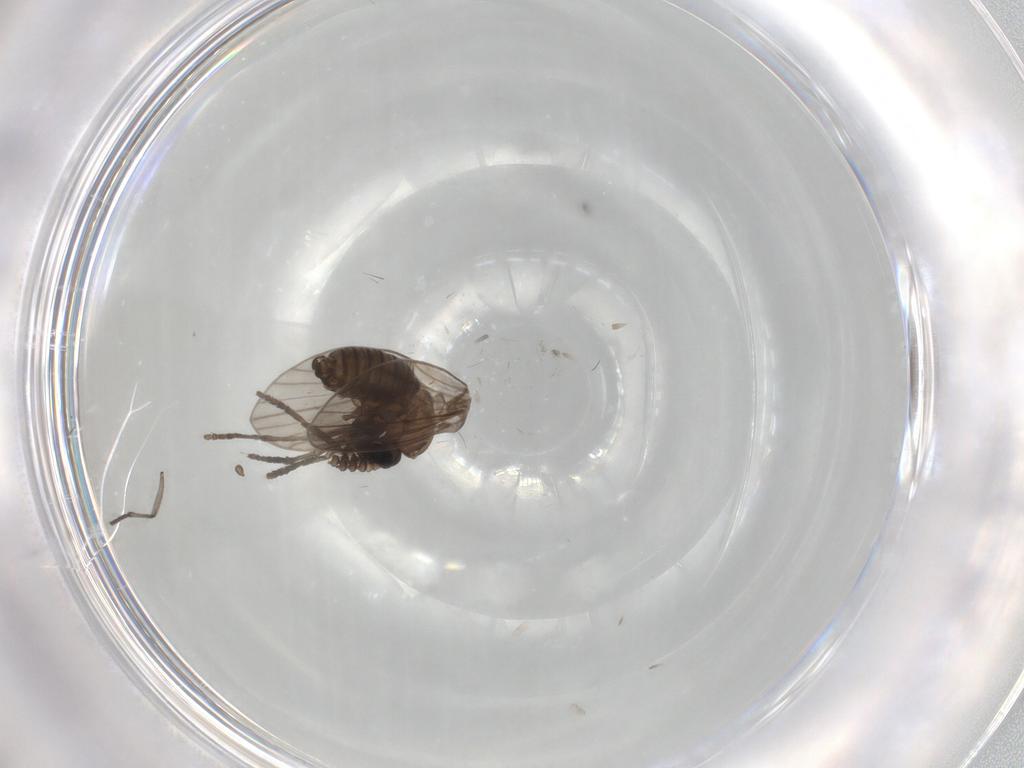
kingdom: Animalia
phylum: Arthropoda
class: Insecta
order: Diptera
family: Psychodidae
